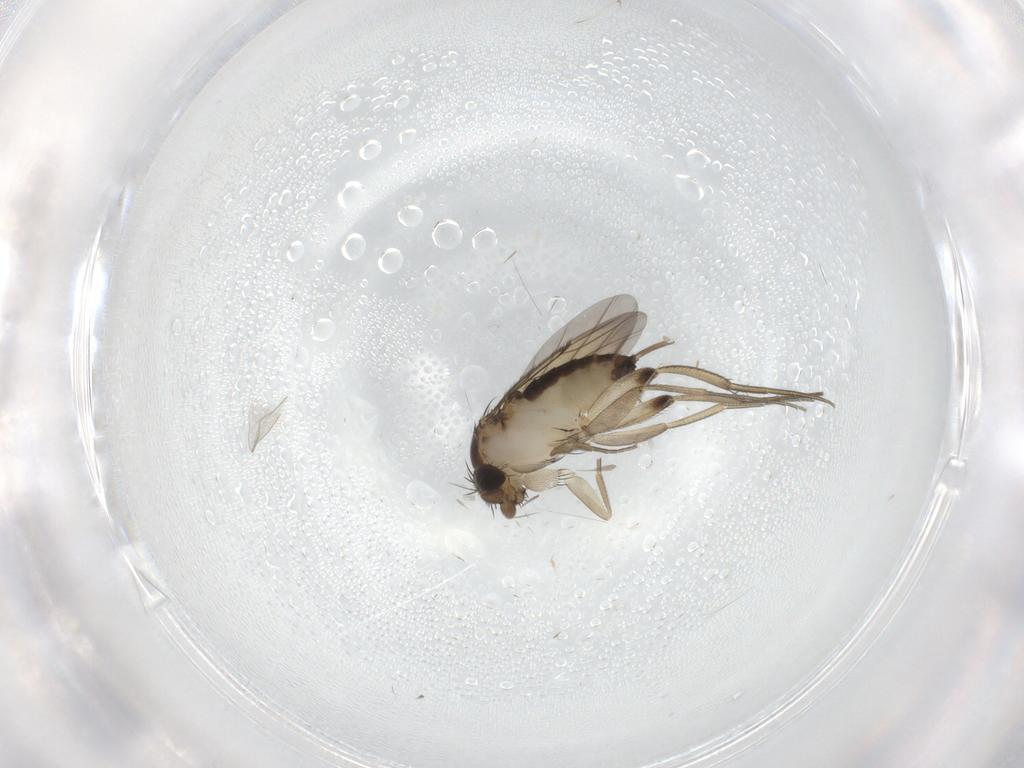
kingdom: Animalia
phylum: Arthropoda
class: Insecta
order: Diptera
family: Phoridae
